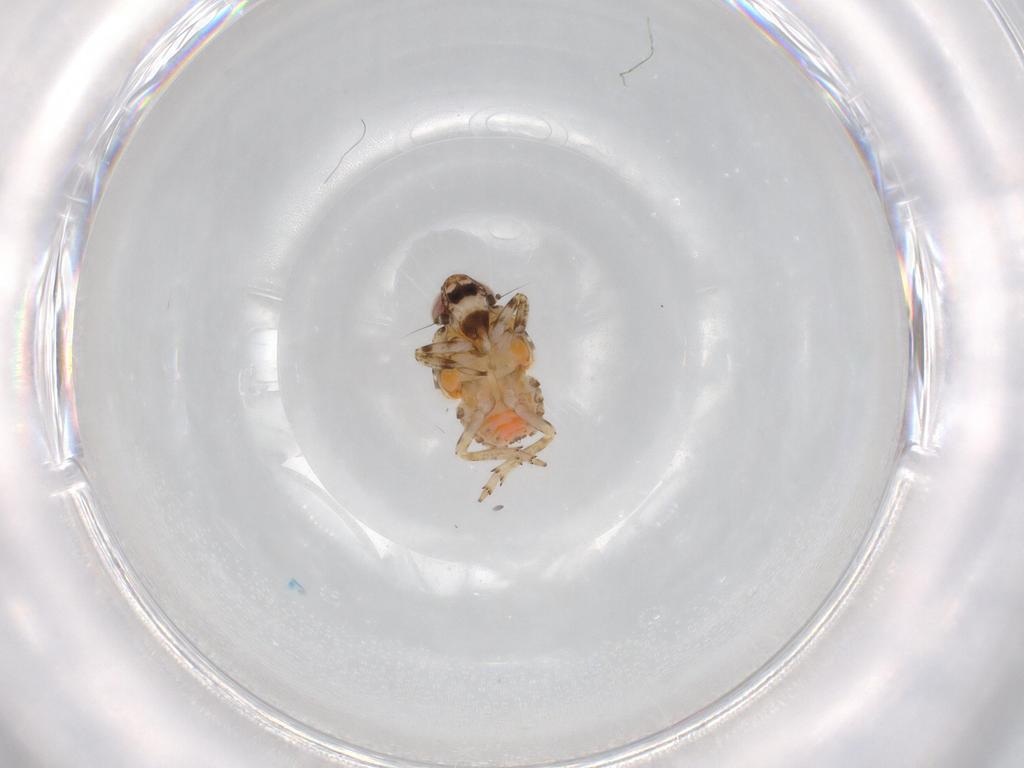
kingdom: Animalia
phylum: Arthropoda
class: Insecta
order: Hemiptera
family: Issidae
